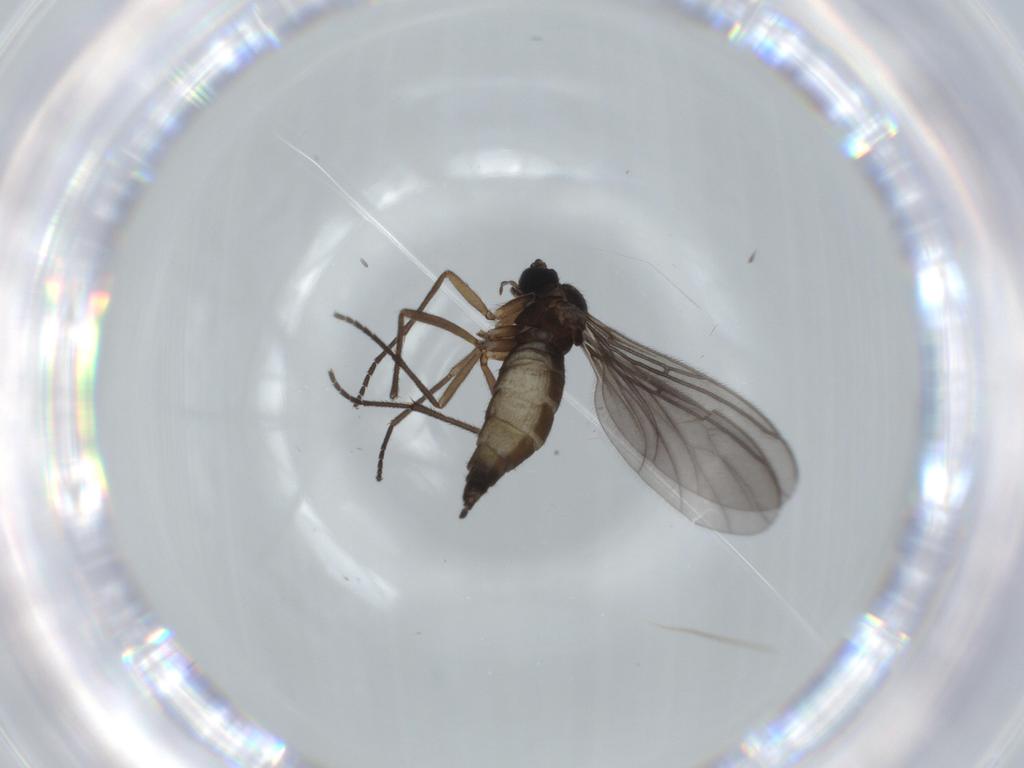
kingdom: Animalia
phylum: Arthropoda
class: Insecta
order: Diptera
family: Sciaridae
